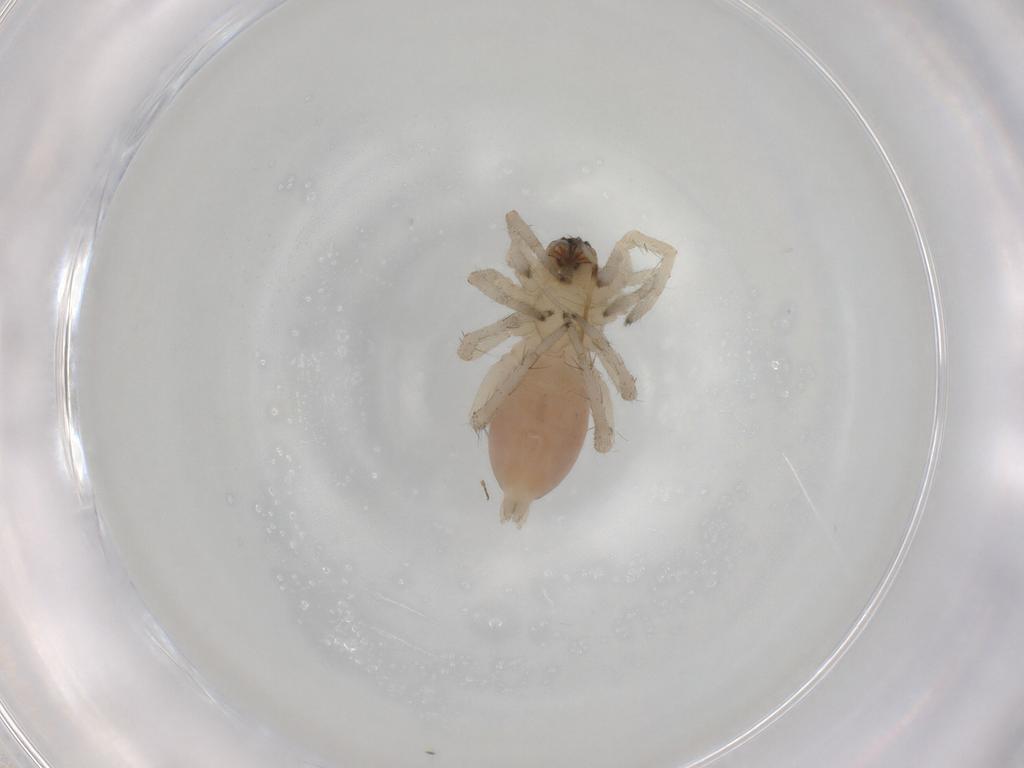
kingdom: Animalia
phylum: Arthropoda
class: Arachnida
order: Araneae
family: Anyphaenidae
